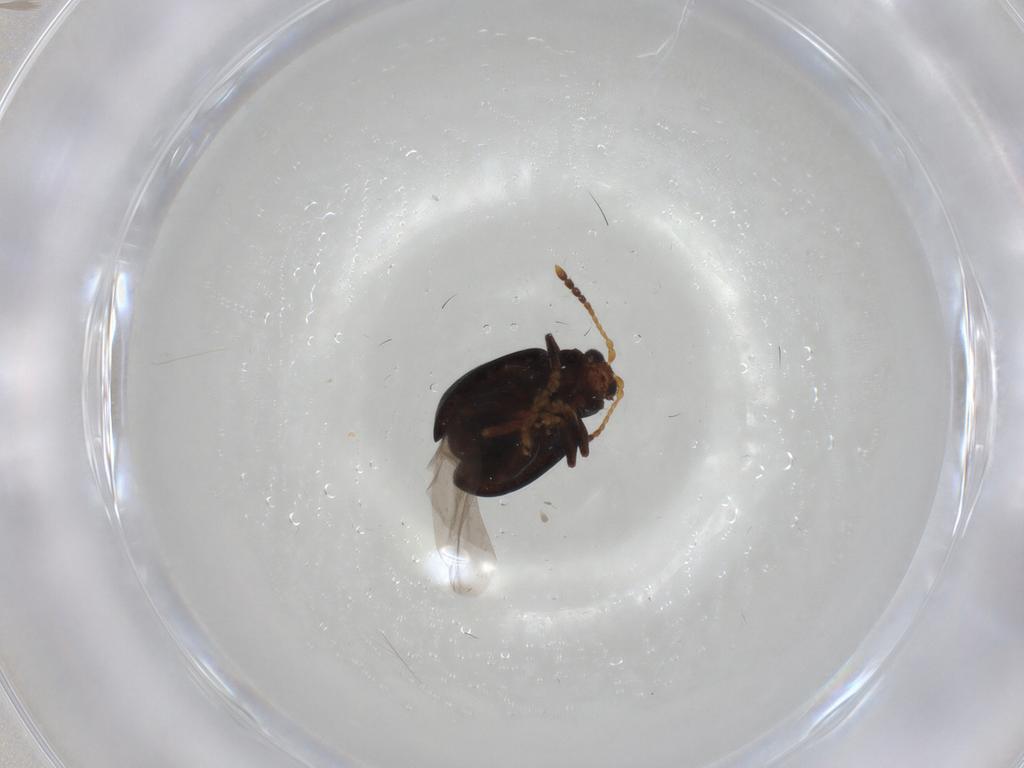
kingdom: Animalia
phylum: Arthropoda
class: Insecta
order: Coleoptera
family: Chrysomelidae
